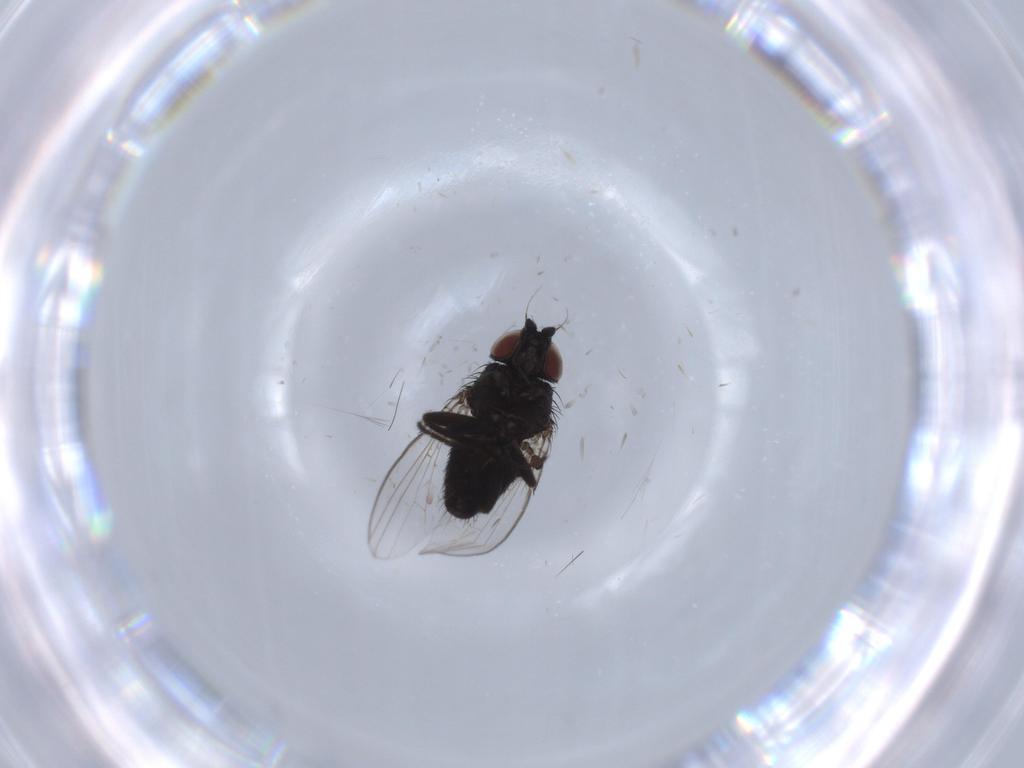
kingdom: Animalia
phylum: Arthropoda
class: Insecta
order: Diptera
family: Milichiidae
